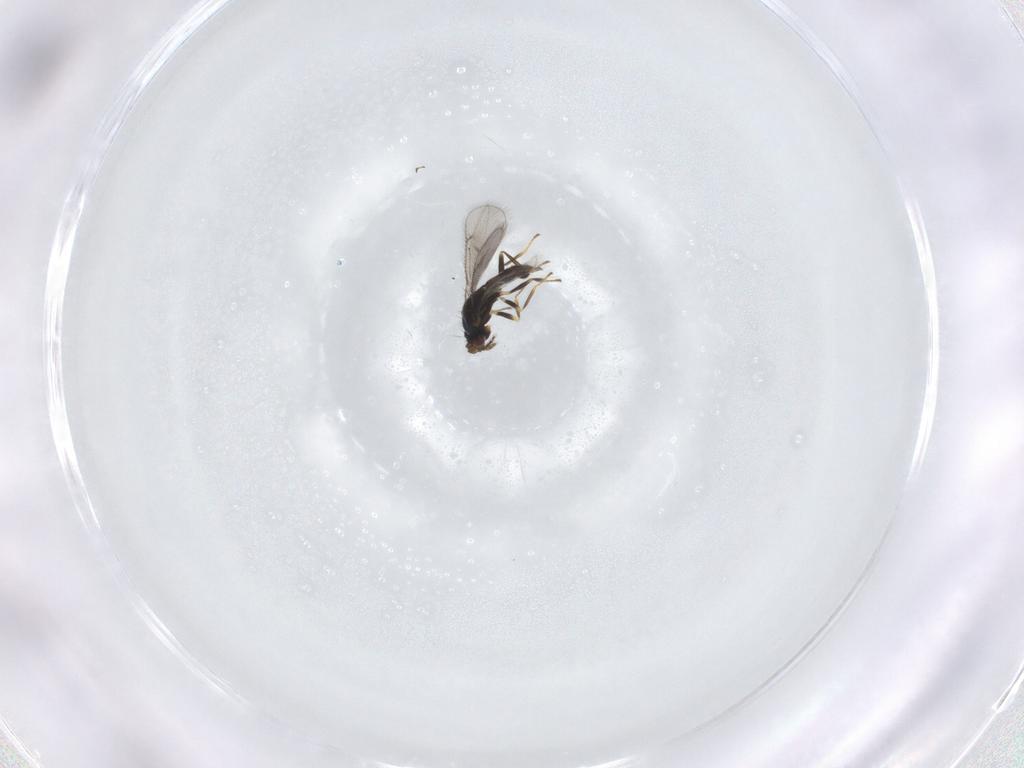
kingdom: Animalia
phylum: Arthropoda
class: Insecta
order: Hymenoptera
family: Eulophidae
